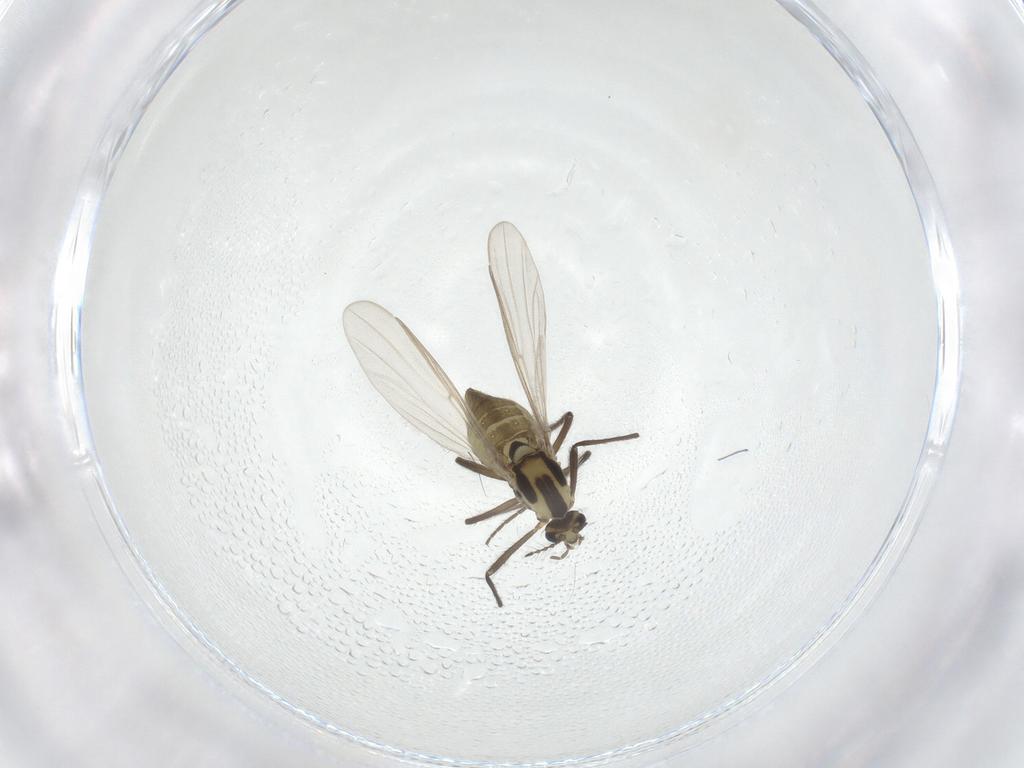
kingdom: Animalia
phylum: Arthropoda
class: Insecta
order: Diptera
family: Chironomidae
